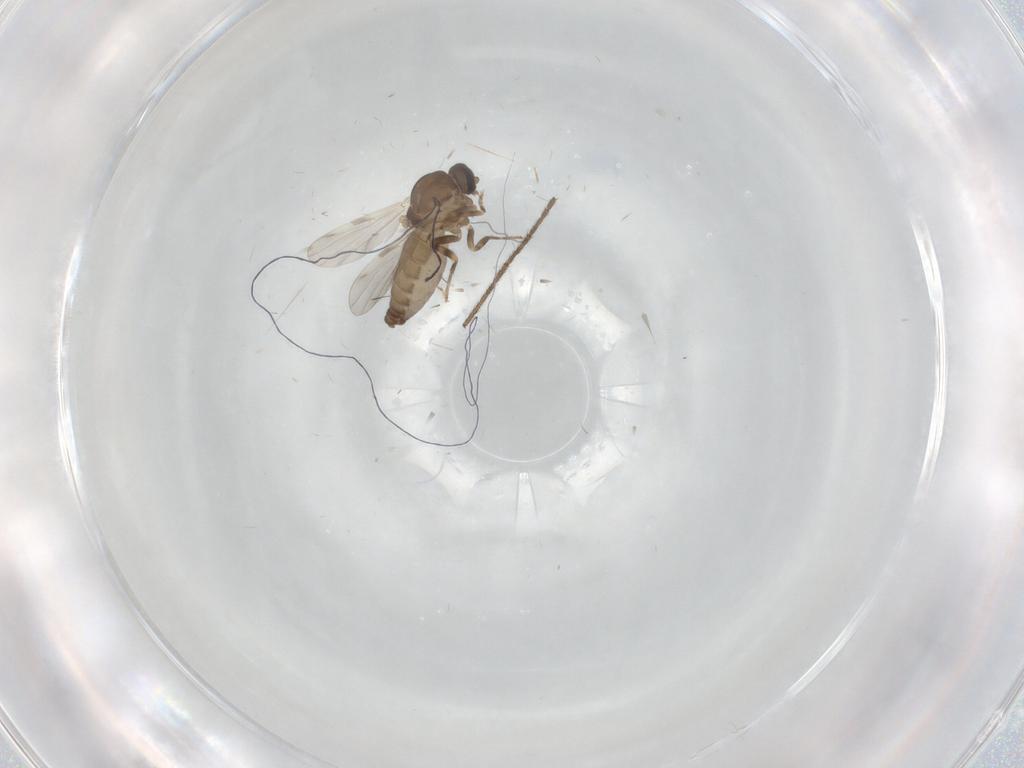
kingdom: Animalia
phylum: Arthropoda
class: Insecta
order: Diptera
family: Ceratopogonidae
